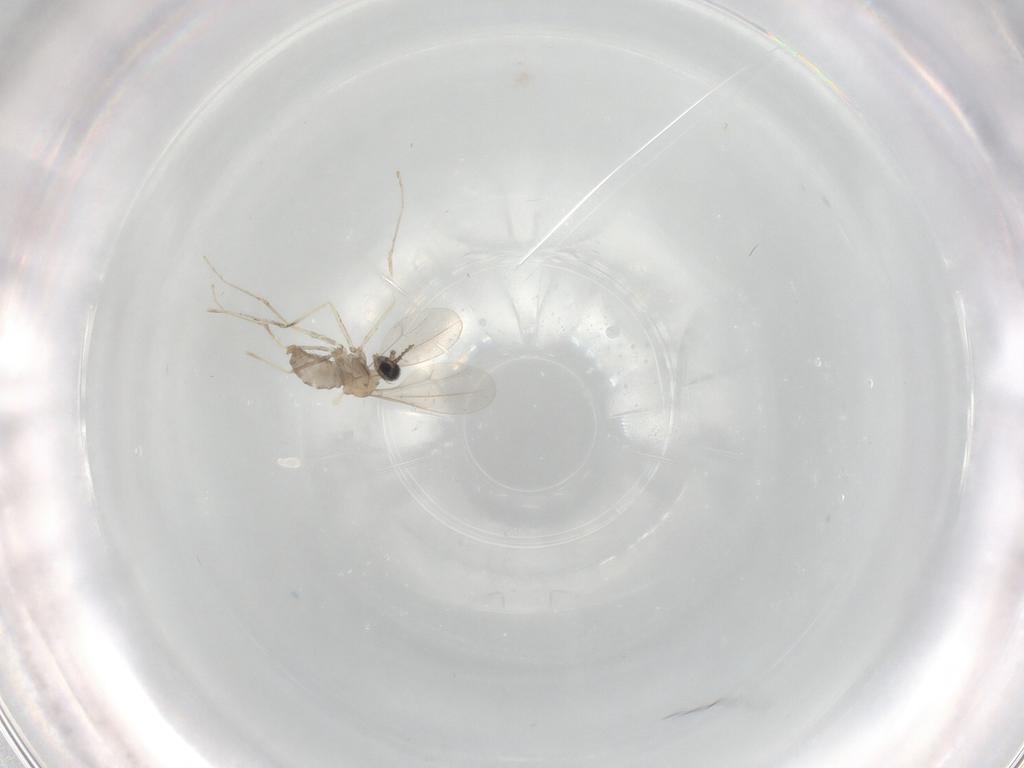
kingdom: Animalia
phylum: Arthropoda
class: Insecta
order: Diptera
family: Cecidomyiidae
